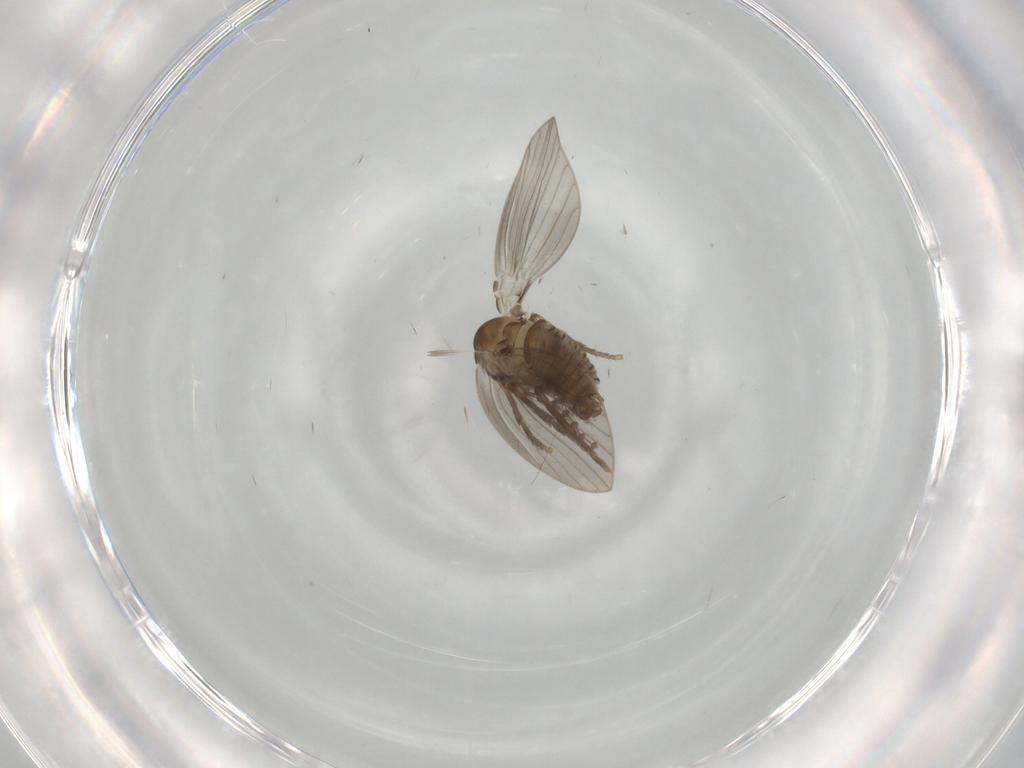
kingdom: Animalia
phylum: Arthropoda
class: Insecta
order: Diptera
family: Psychodidae
